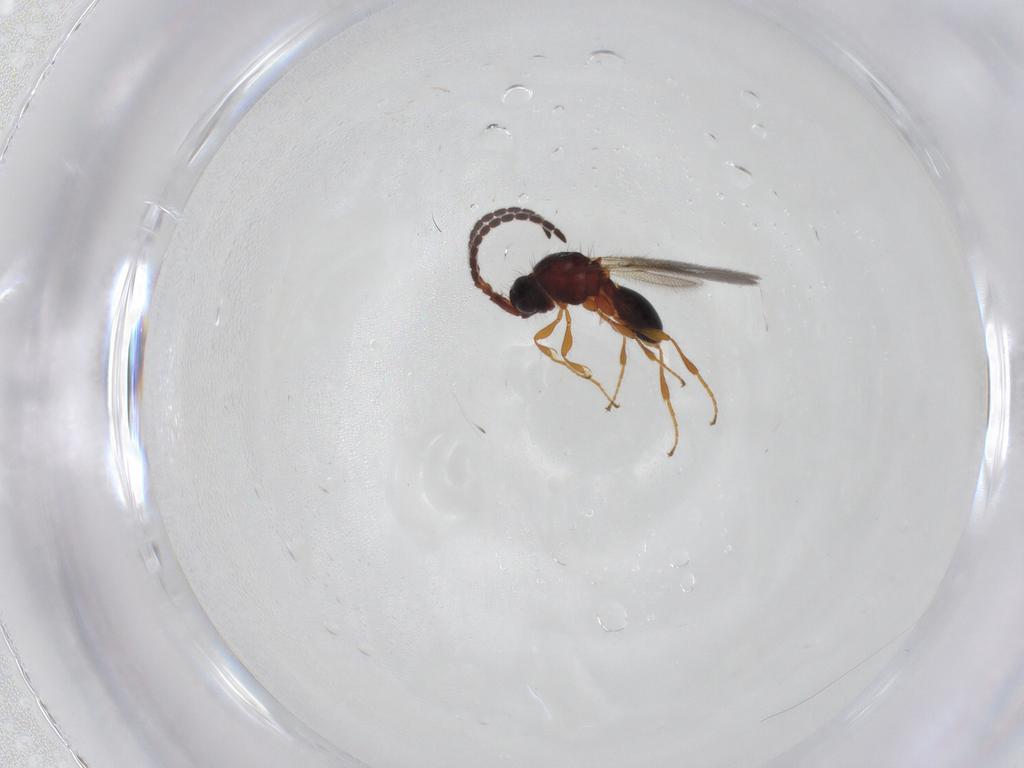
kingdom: Animalia
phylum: Arthropoda
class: Insecta
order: Hymenoptera
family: Diapriidae
